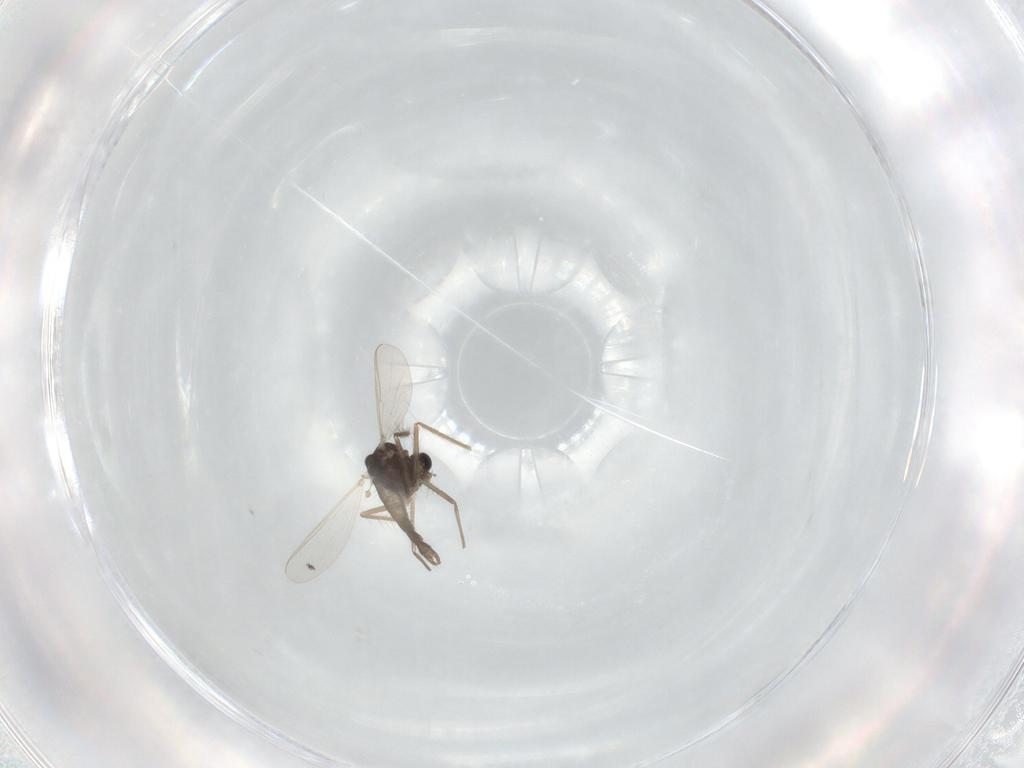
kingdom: Animalia
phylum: Arthropoda
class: Insecta
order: Diptera
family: Chironomidae
